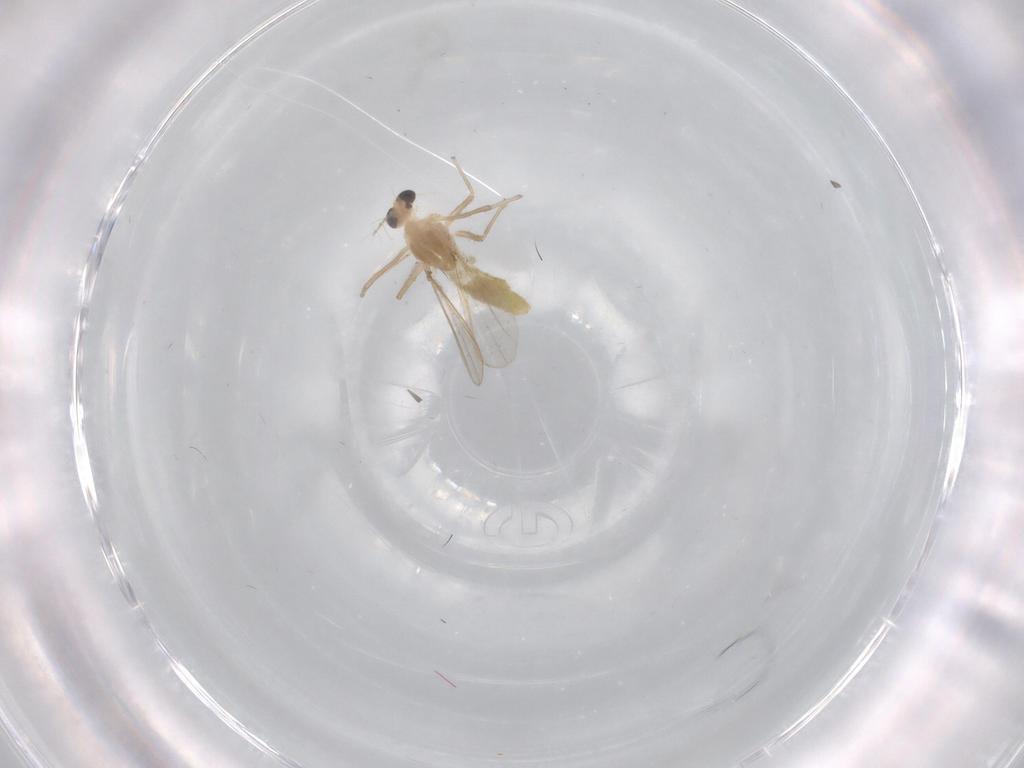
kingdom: Animalia
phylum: Arthropoda
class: Insecta
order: Diptera
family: Chironomidae
